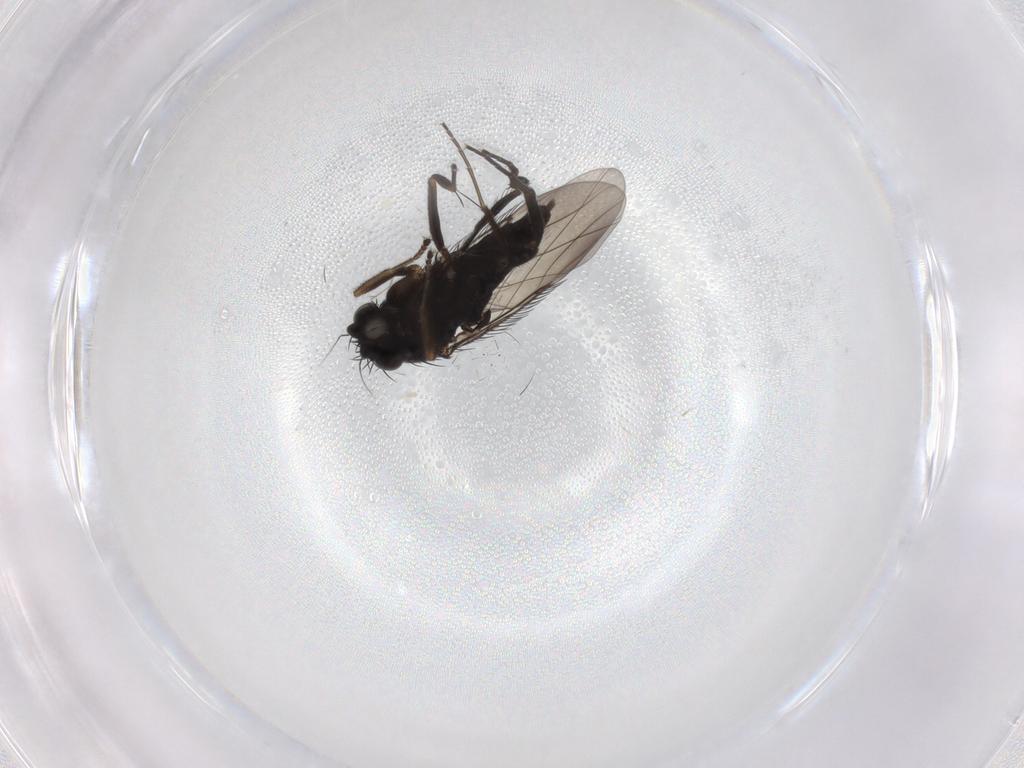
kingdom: Animalia
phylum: Arthropoda
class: Insecta
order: Diptera
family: Phoridae
